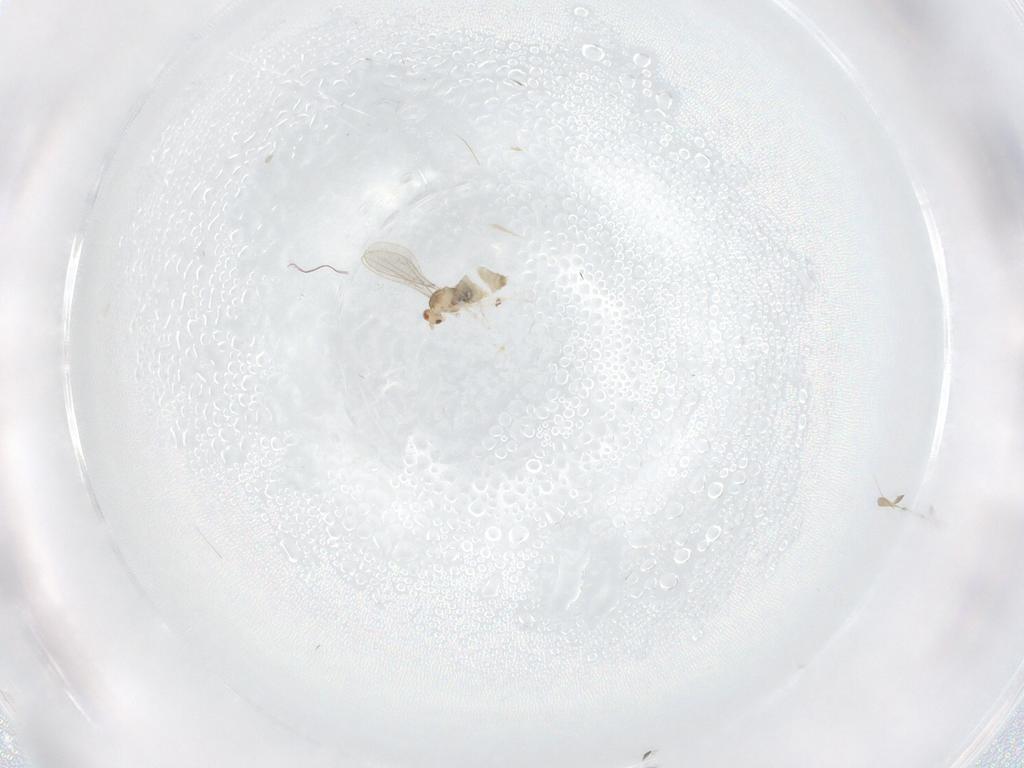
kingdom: Animalia
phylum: Arthropoda
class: Insecta
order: Diptera
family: Cecidomyiidae
